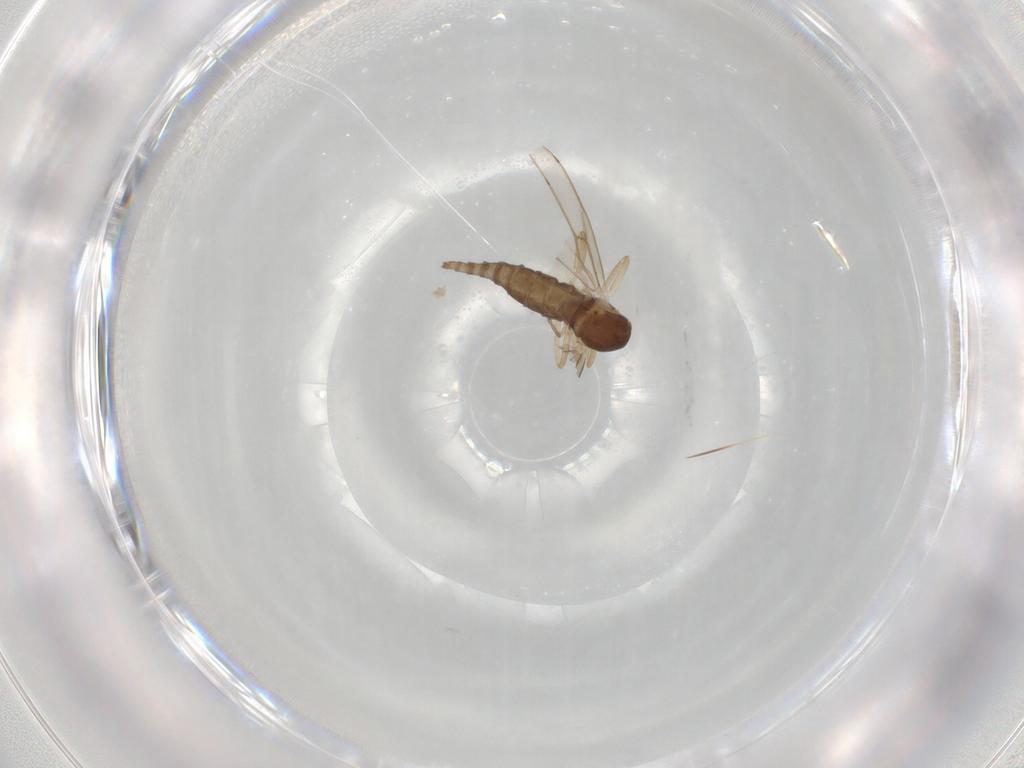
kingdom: Animalia
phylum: Arthropoda
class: Insecta
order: Diptera
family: Cecidomyiidae
